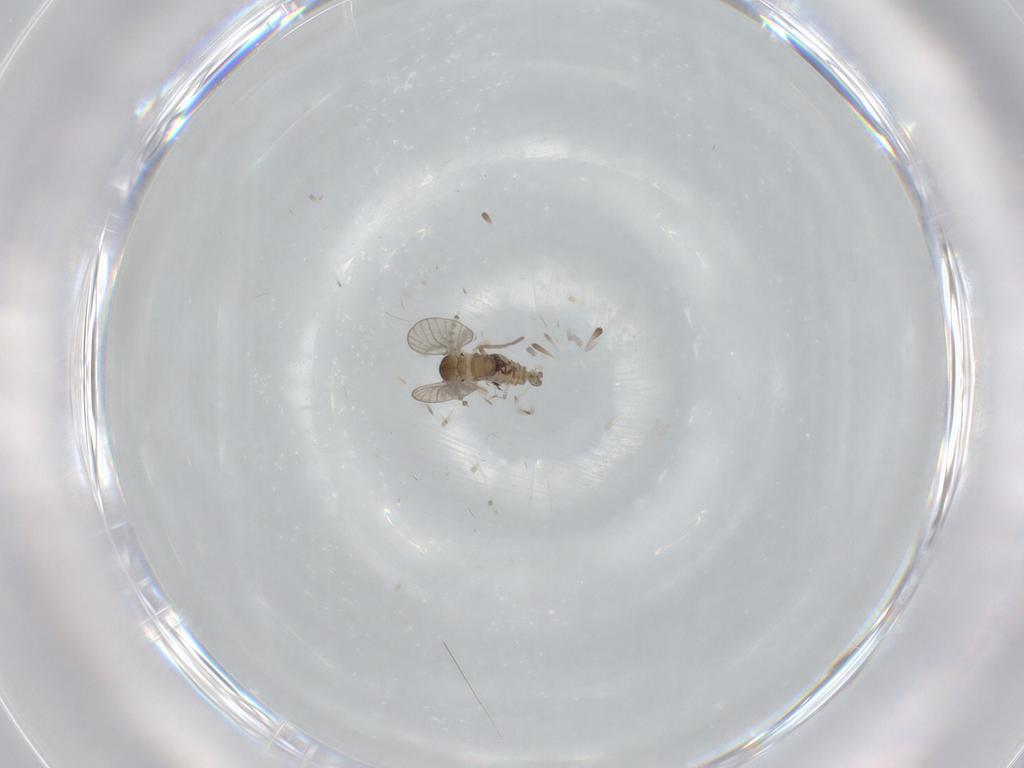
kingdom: Animalia
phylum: Arthropoda
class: Insecta
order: Diptera
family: Psychodidae
